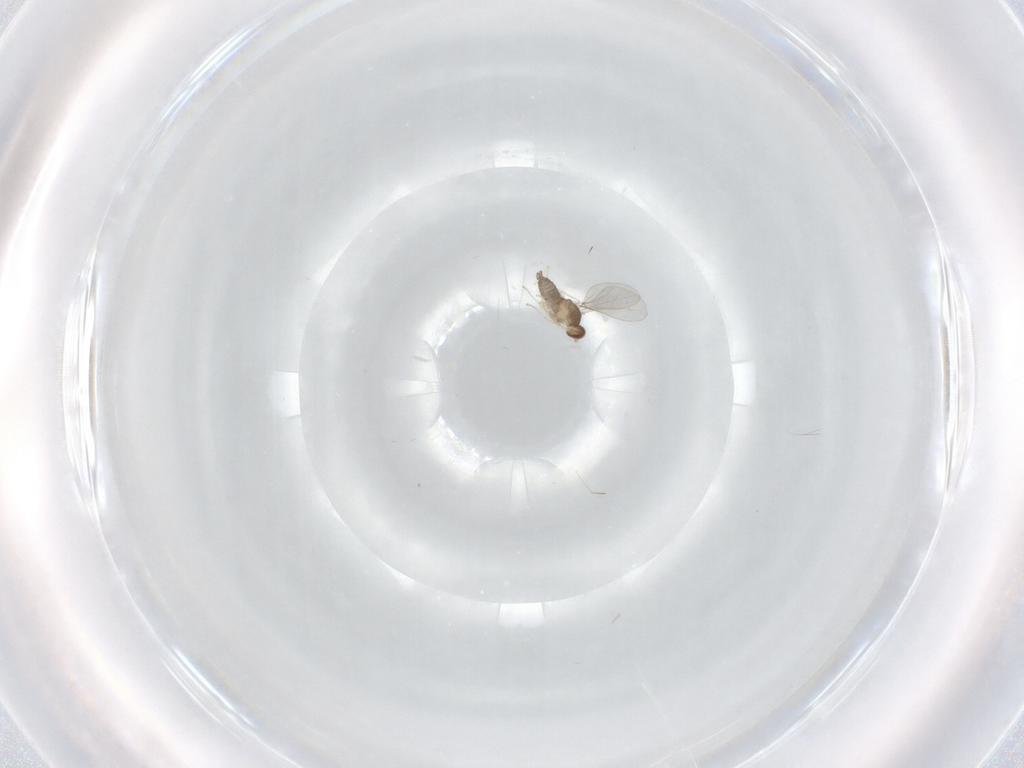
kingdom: Animalia
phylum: Arthropoda
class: Insecta
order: Diptera
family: Cecidomyiidae
